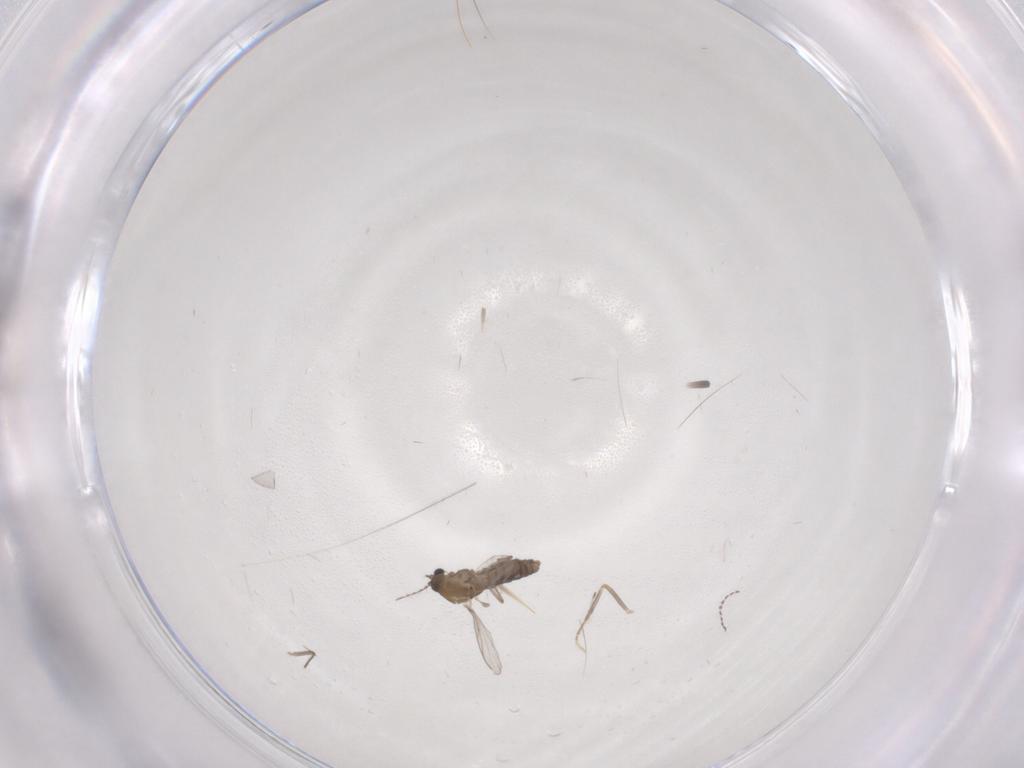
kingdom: Animalia
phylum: Arthropoda
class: Insecta
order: Diptera
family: Chironomidae
